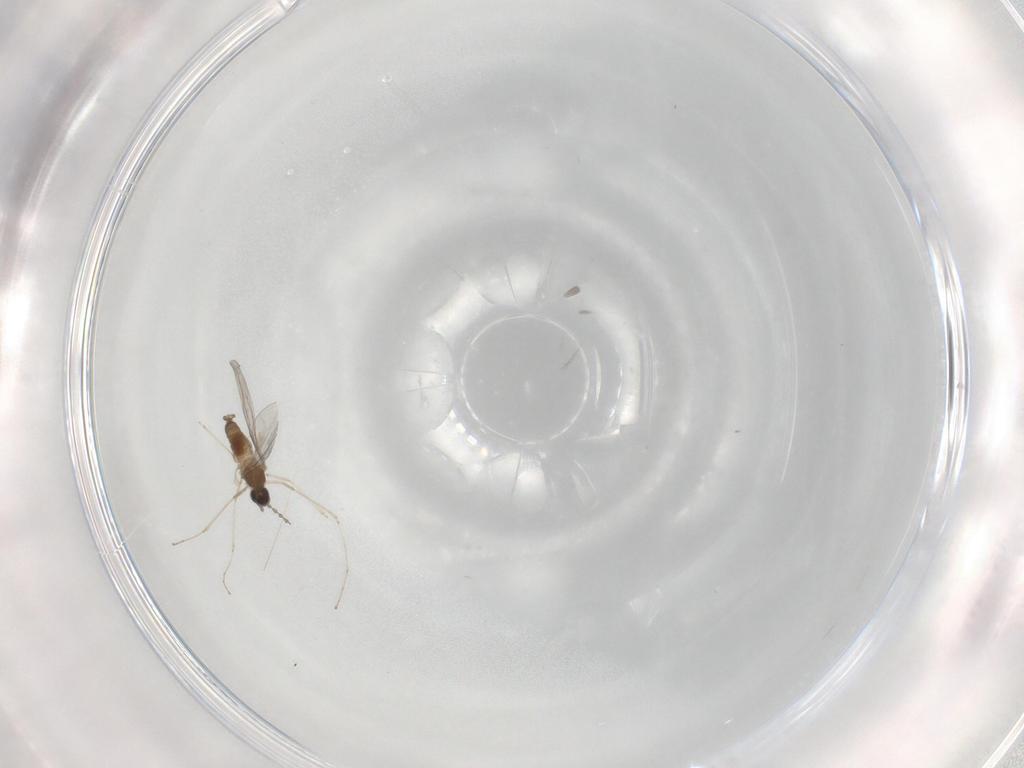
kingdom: Animalia
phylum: Arthropoda
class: Insecta
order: Diptera
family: Cecidomyiidae
